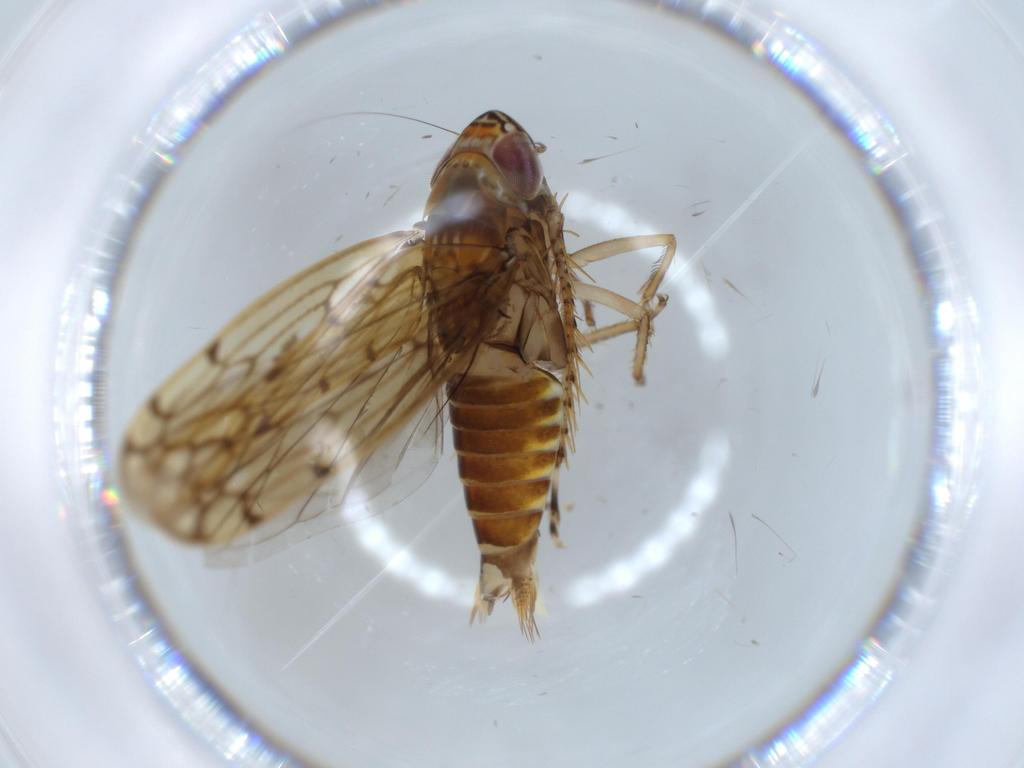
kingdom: Animalia
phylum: Arthropoda
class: Insecta
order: Hemiptera
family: Cicadellidae
